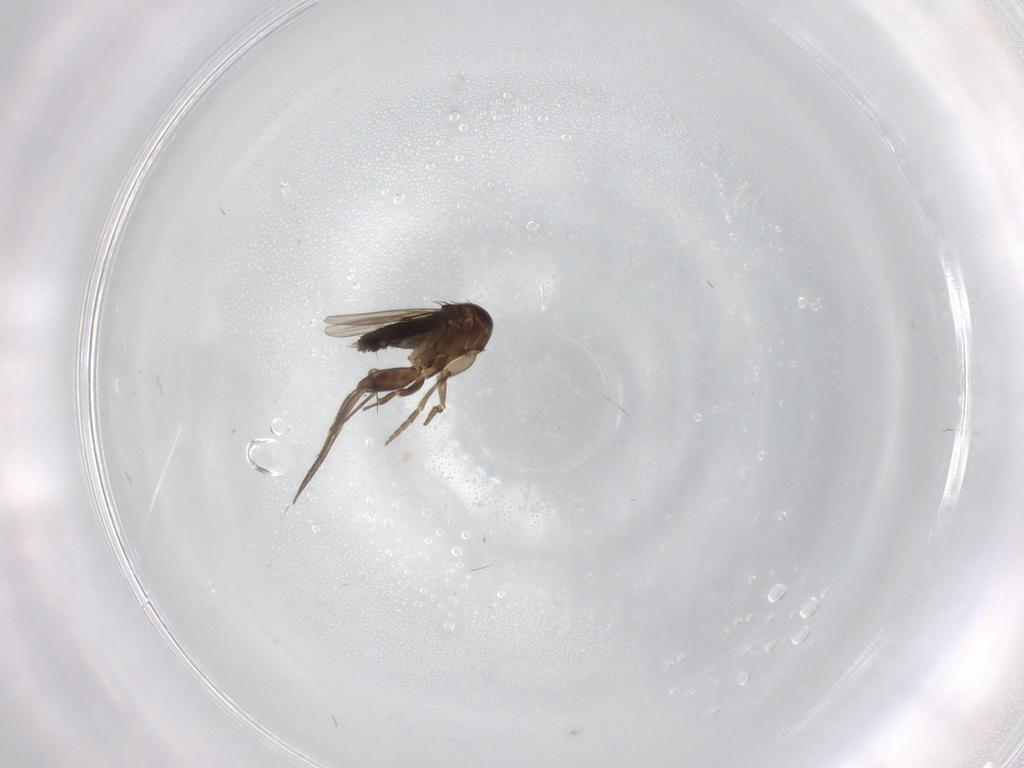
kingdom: Animalia
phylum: Arthropoda
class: Insecta
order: Diptera
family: Phoridae
